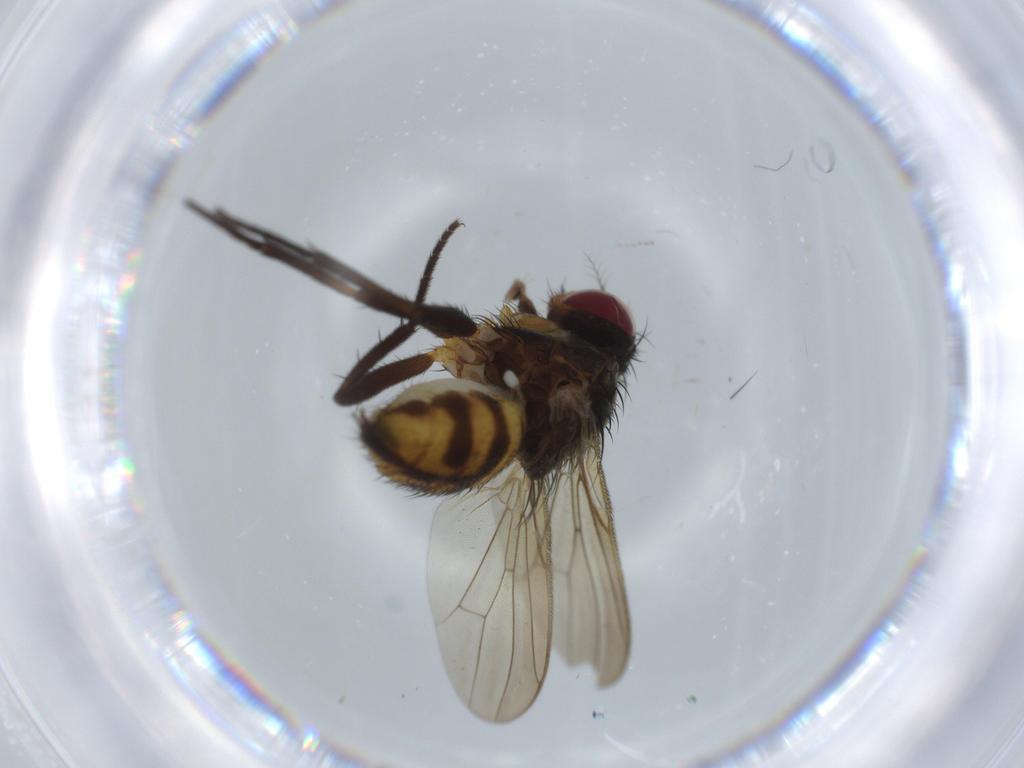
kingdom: Animalia
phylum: Arthropoda
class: Insecta
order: Diptera
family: Anthomyiidae
